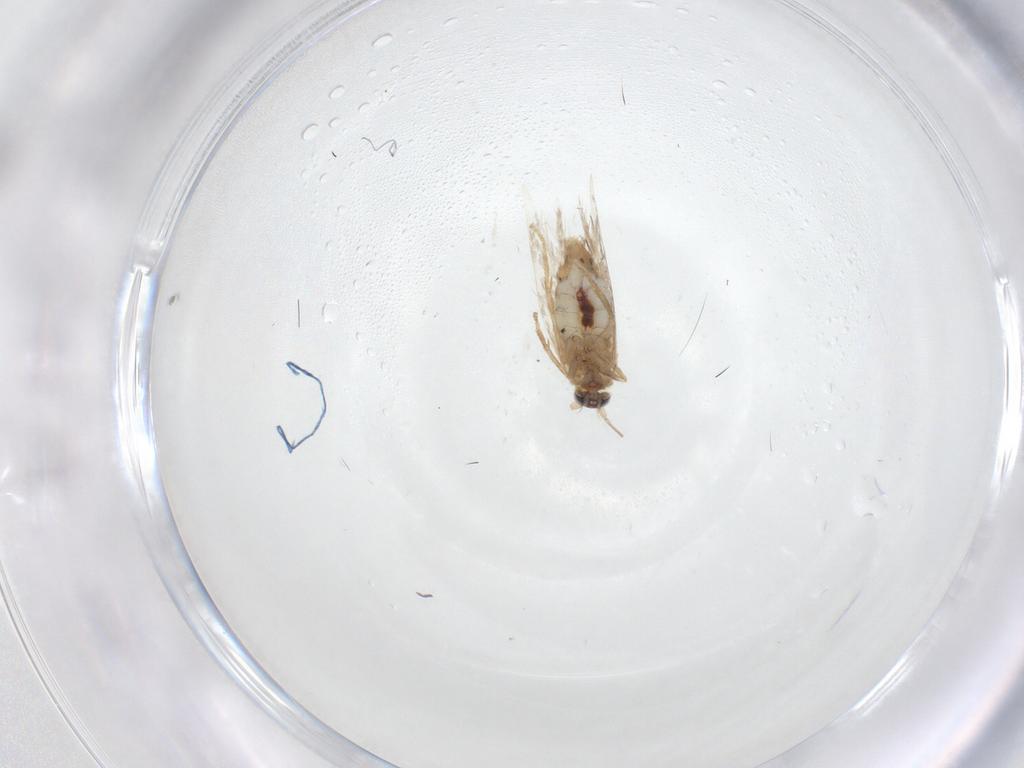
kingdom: Animalia
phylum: Arthropoda
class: Insecta
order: Lepidoptera
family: Nepticulidae
